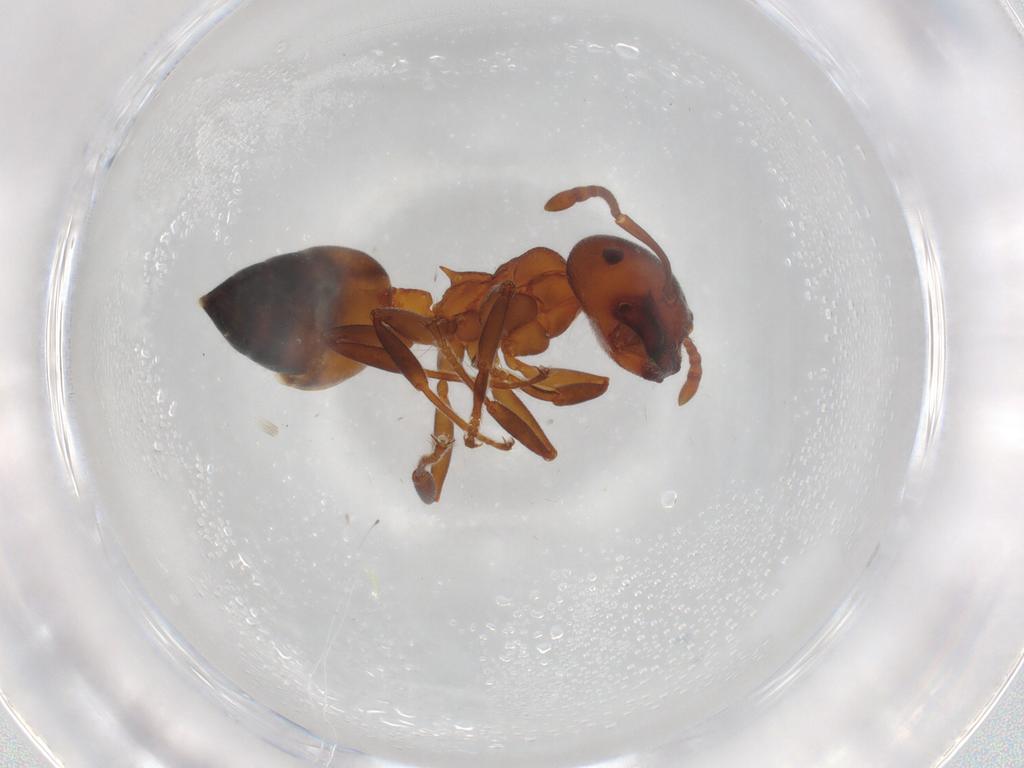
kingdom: Animalia
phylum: Arthropoda
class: Insecta
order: Hymenoptera
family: Formicidae
